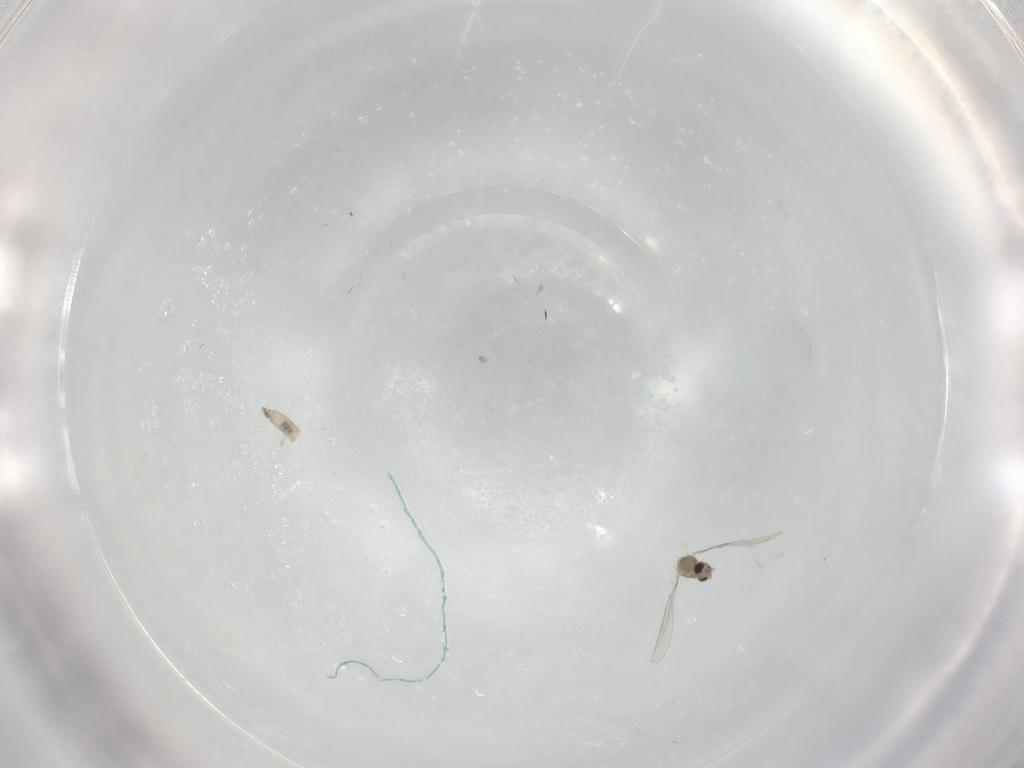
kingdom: Animalia
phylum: Arthropoda
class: Insecta
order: Diptera
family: Cecidomyiidae
